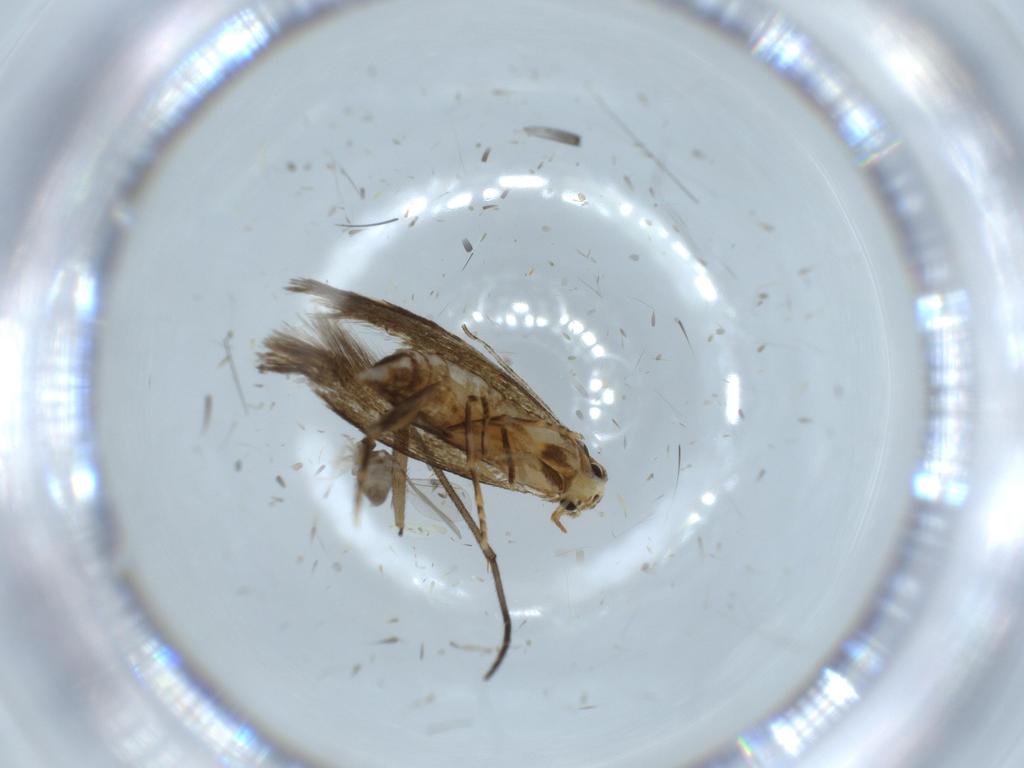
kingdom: Animalia
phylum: Arthropoda
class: Insecta
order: Lepidoptera
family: Tineidae
